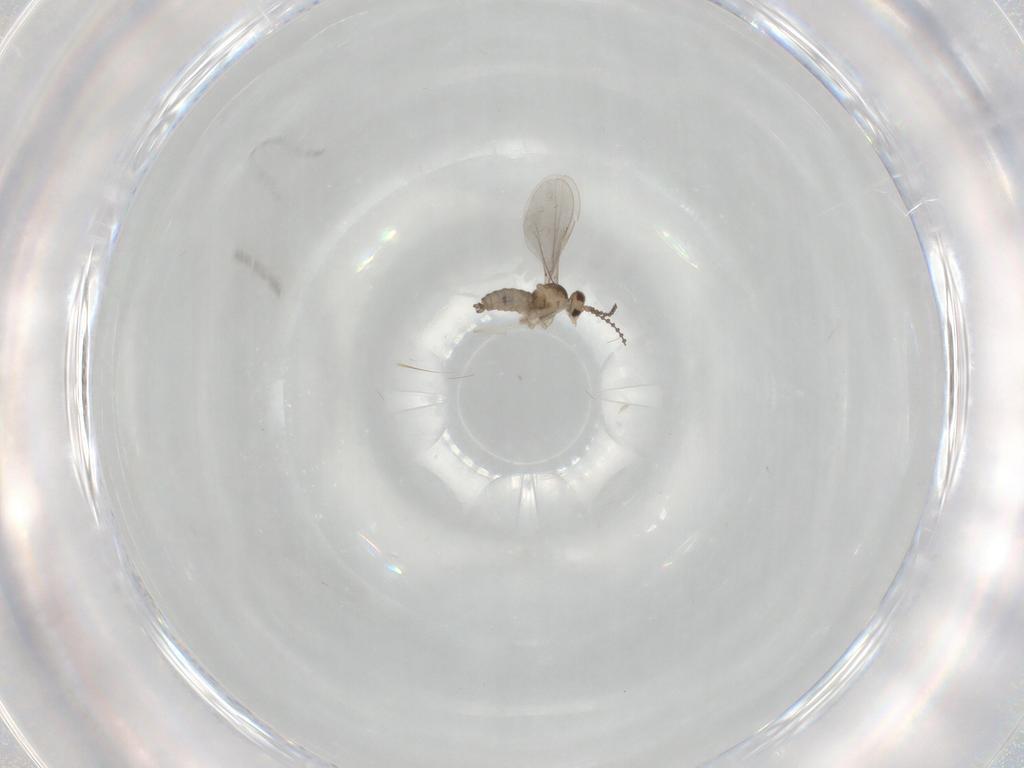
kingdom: Animalia
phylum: Arthropoda
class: Insecta
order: Diptera
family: Cecidomyiidae
